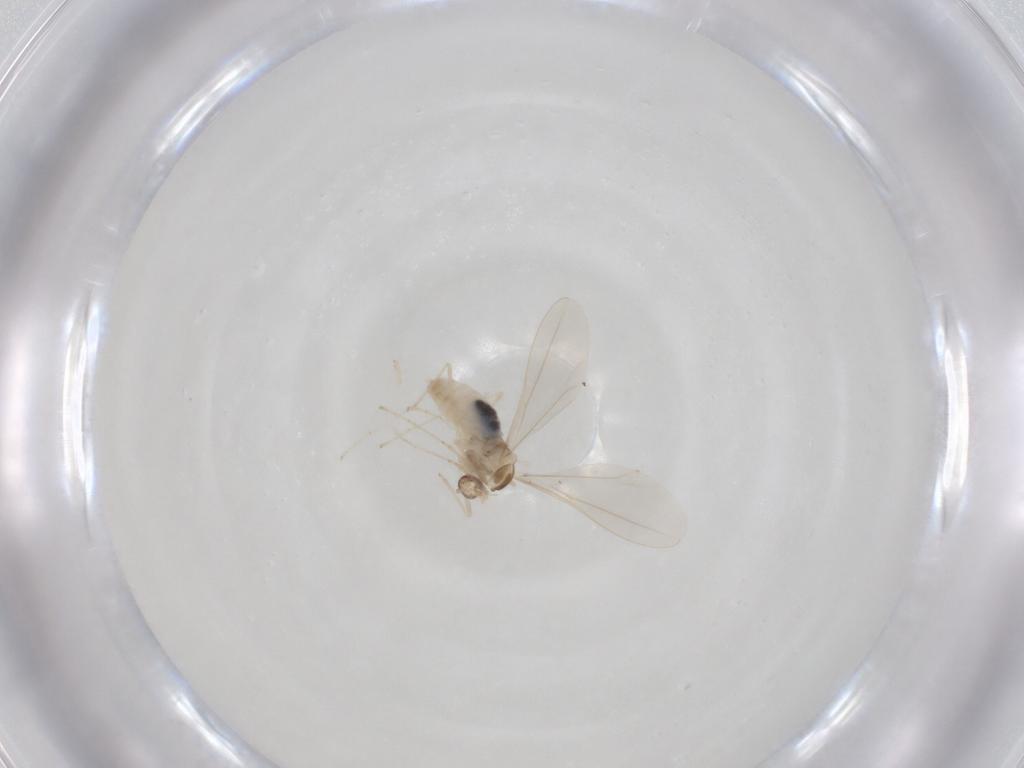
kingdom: Animalia
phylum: Arthropoda
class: Insecta
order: Diptera
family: Cecidomyiidae
